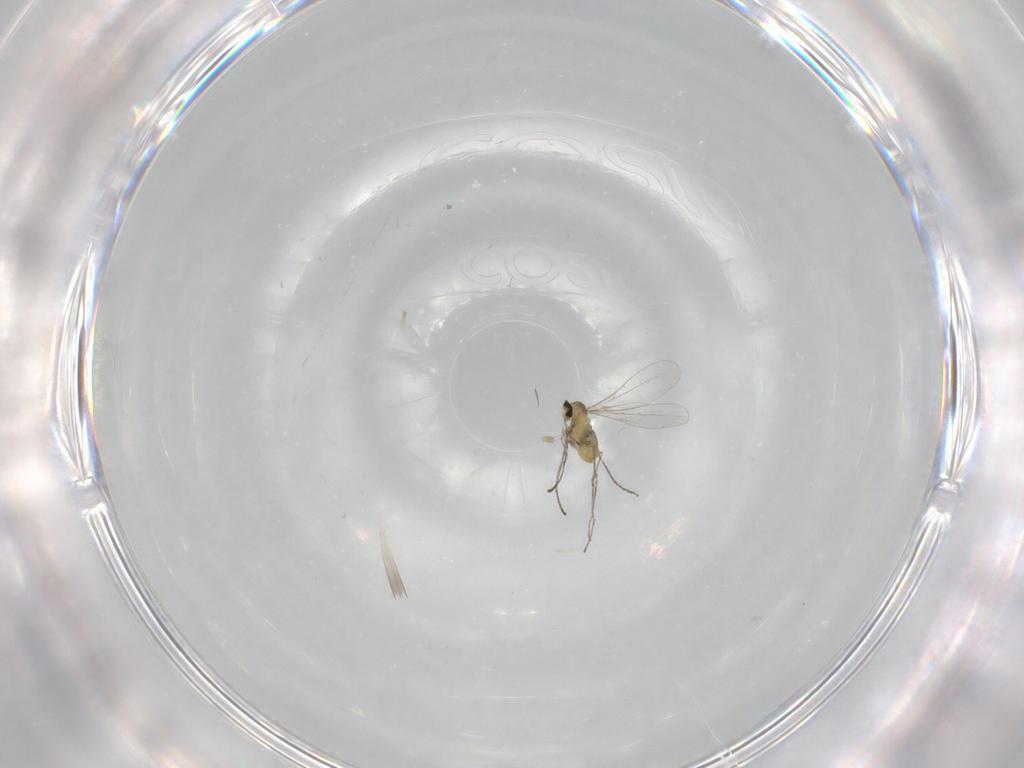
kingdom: Animalia
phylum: Arthropoda
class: Insecta
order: Diptera
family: Cecidomyiidae
